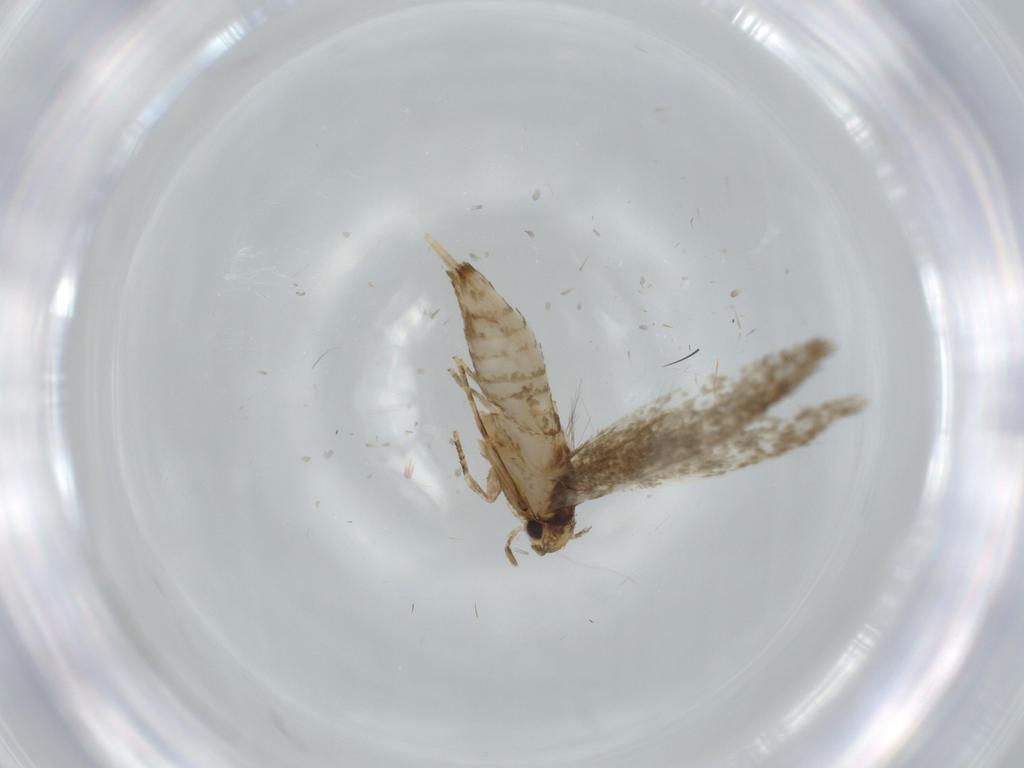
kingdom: Animalia
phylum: Arthropoda
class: Insecta
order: Lepidoptera
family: Tineidae
